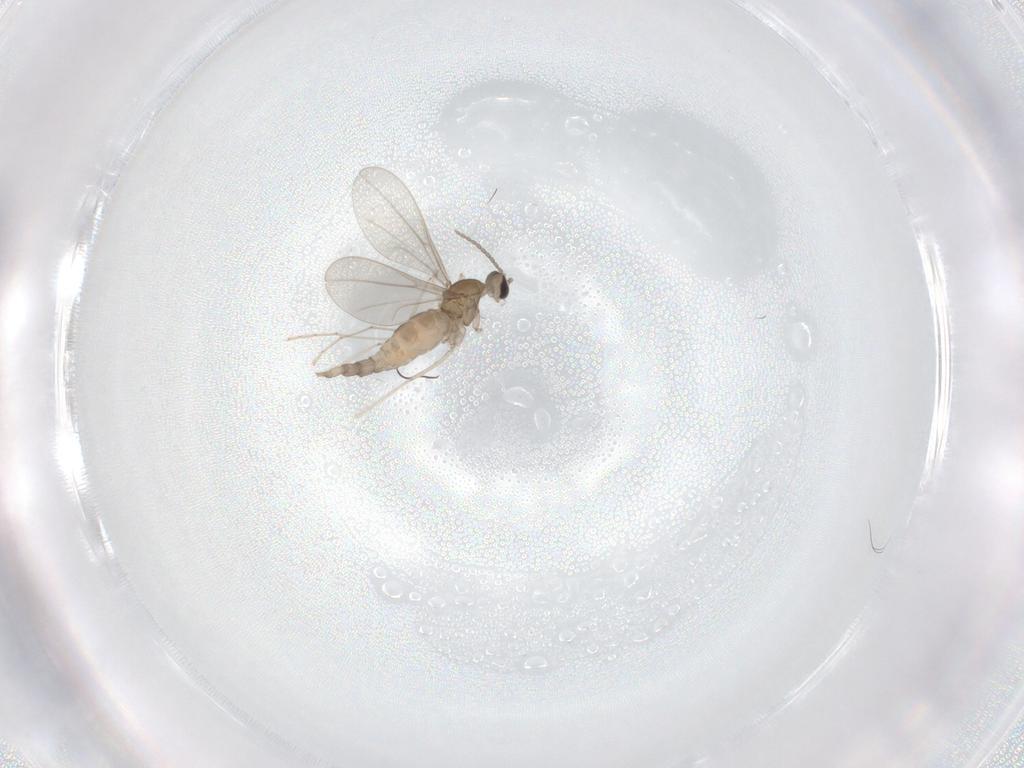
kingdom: Animalia
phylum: Arthropoda
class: Insecta
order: Diptera
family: Cecidomyiidae
